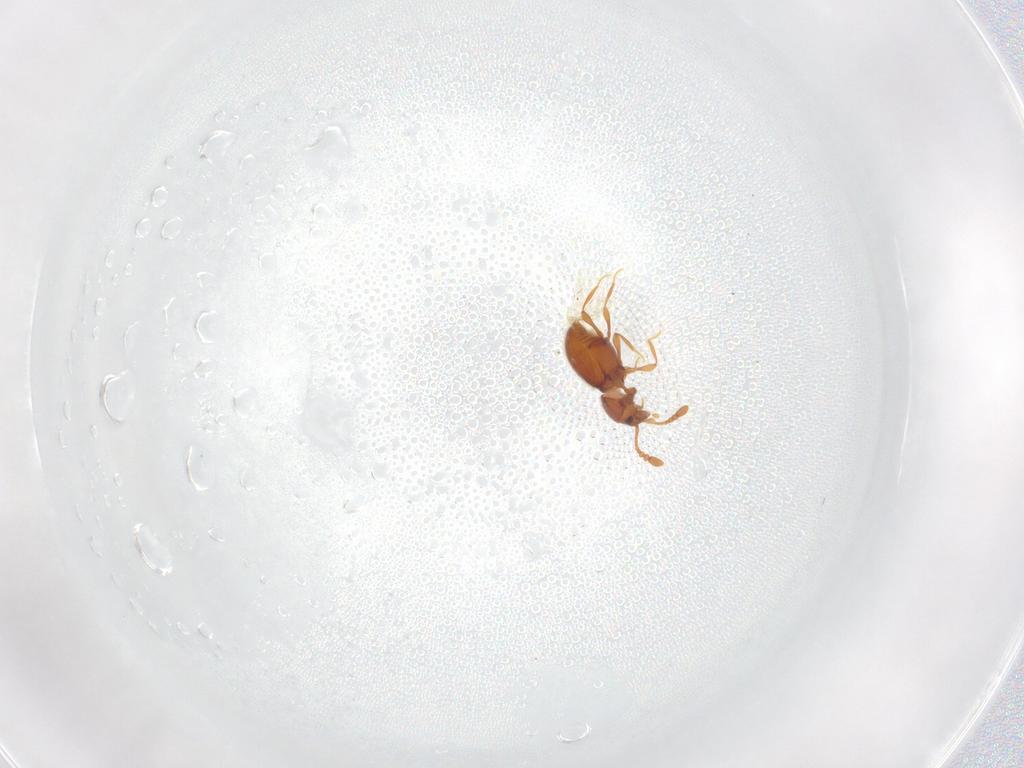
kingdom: Animalia
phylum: Arthropoda
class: Insecta
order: Coleoptera
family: Staphylinidae
